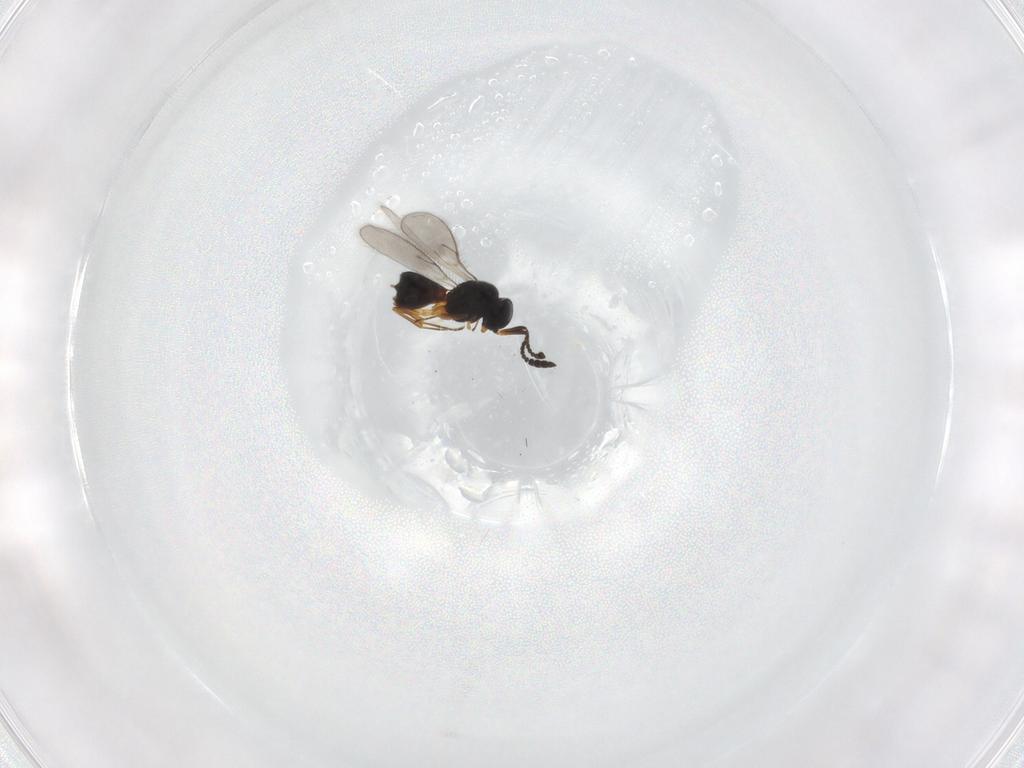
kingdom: Animalia
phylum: Arthropoda
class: Insecta
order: Hymenoptera
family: Scelionidae
